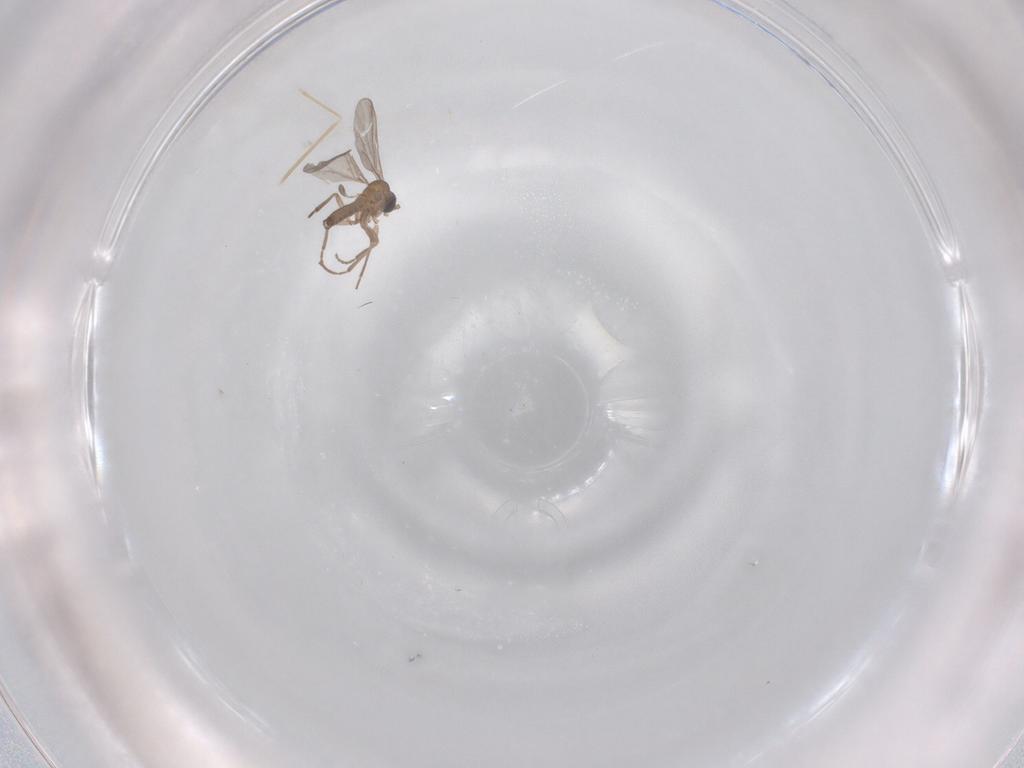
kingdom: Animalia
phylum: Arthropoda
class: Insecta
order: Diptera
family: Cecidomyiidae
